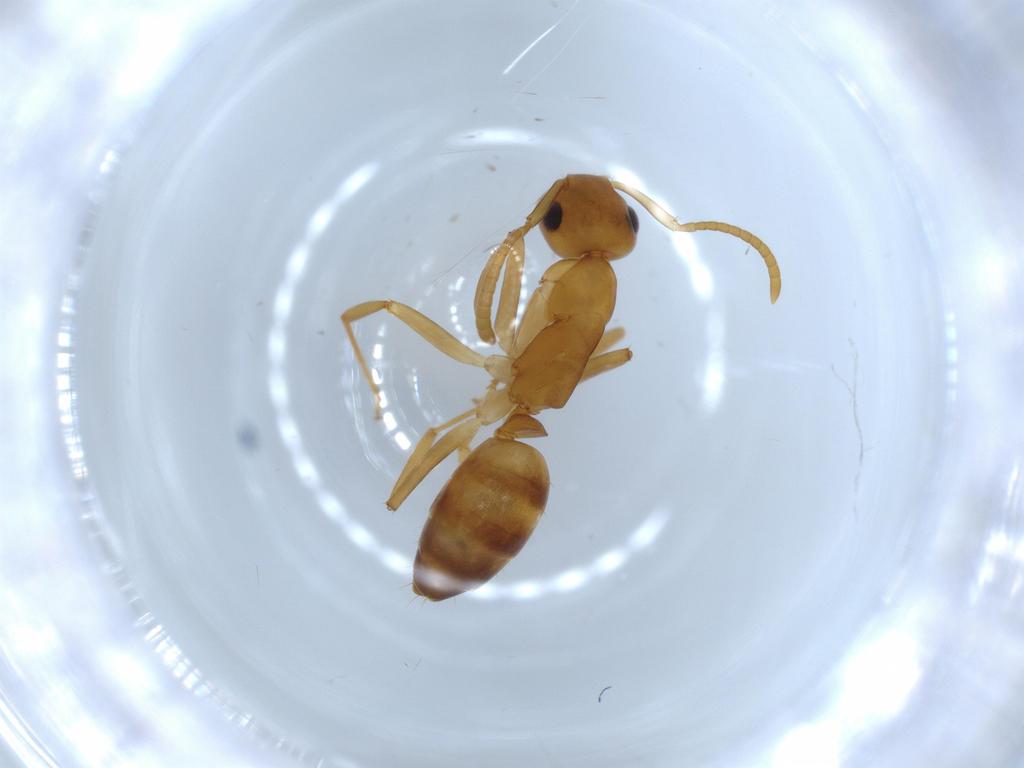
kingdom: Animalia
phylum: Arthropoda
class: Insecta
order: Hymenoptera
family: Formicidae
